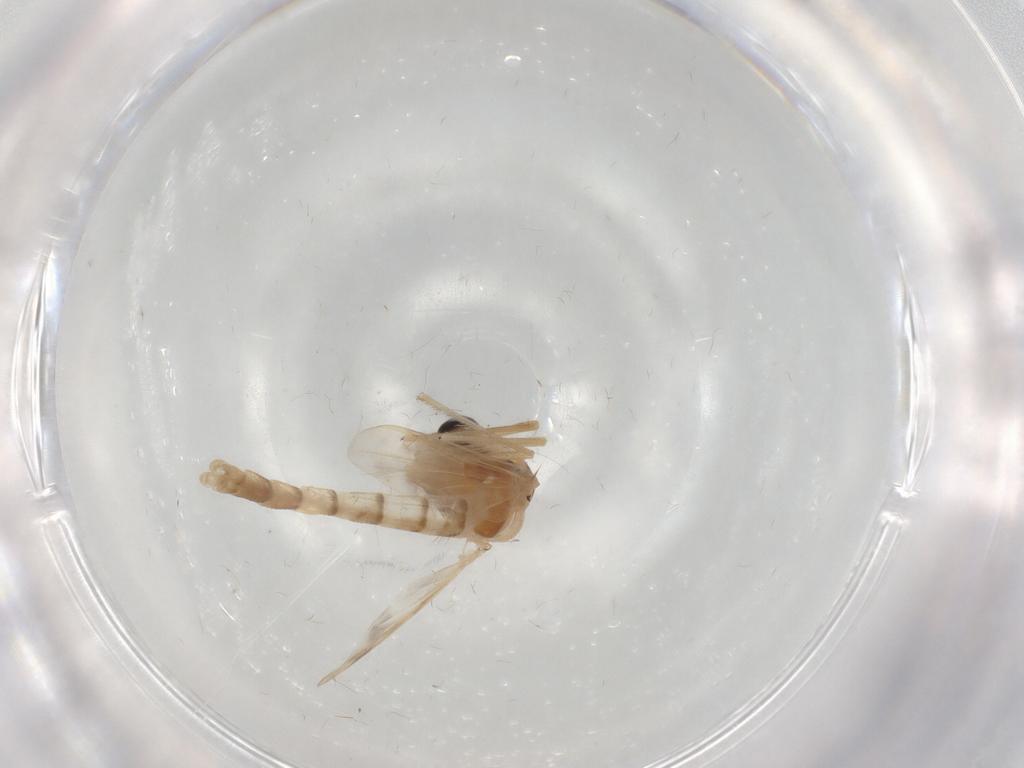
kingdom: Animalia
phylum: Arthropoda
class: Insecta
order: Diptera
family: Chironomidae
